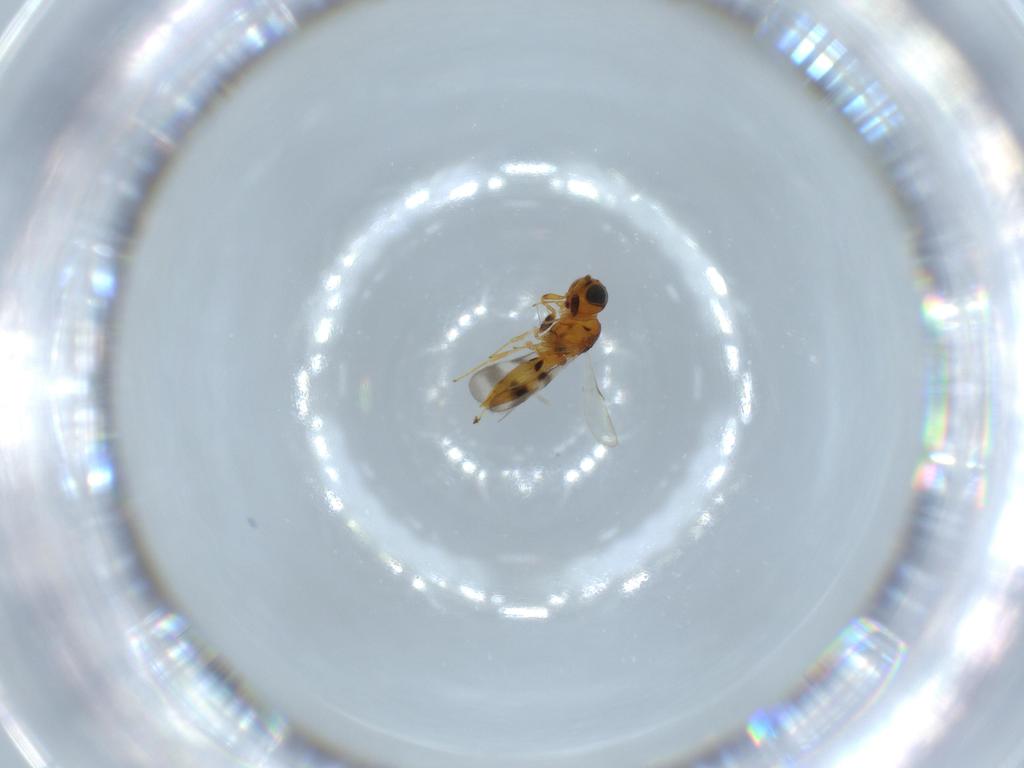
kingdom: Animalia
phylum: Arthropoda
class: Insecta
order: Hymenoptera
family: Scelionidae
